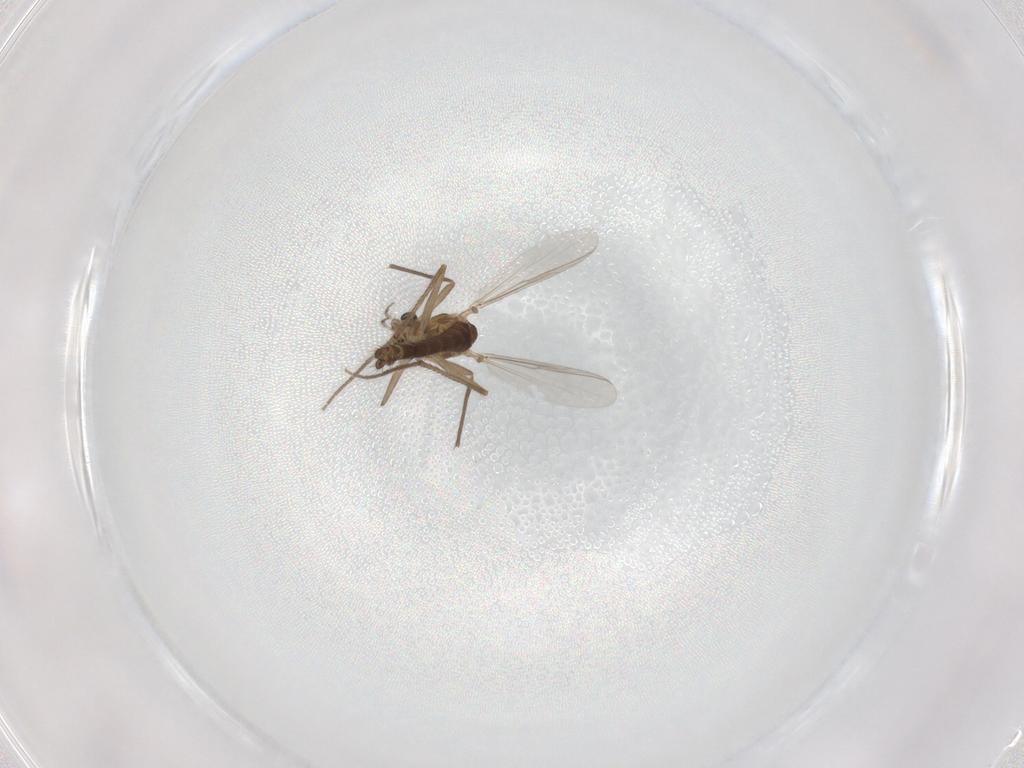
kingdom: Animalia
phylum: Arthropoda
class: Insecta
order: Diptera
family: Chironomidae
